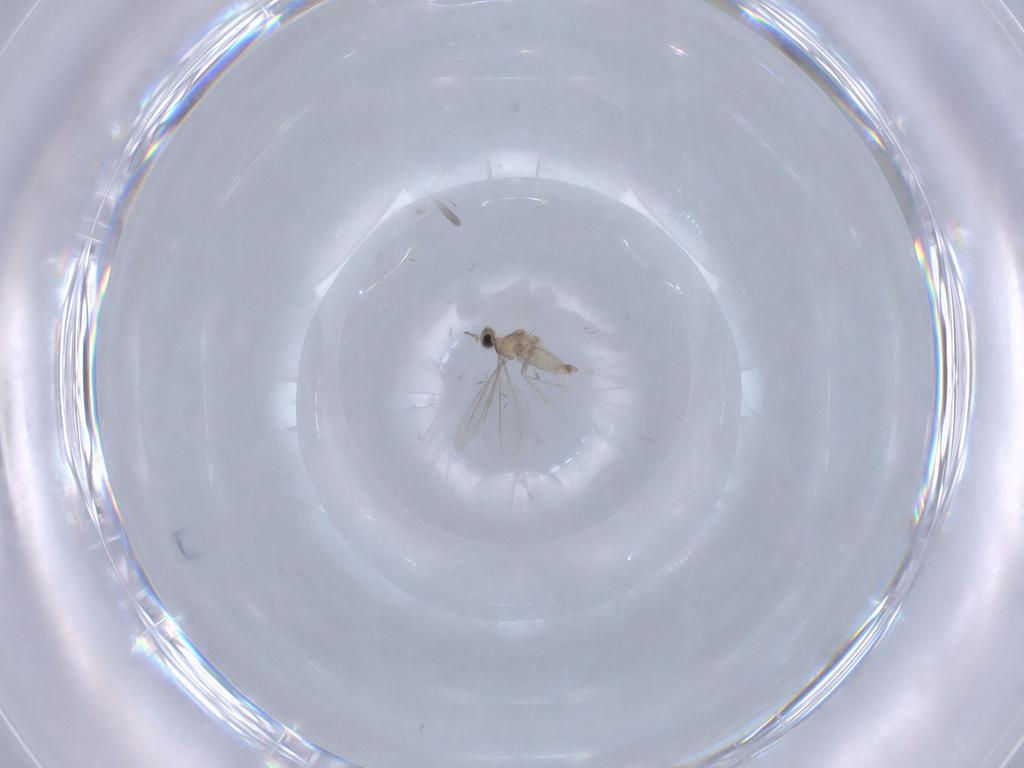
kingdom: Animalia
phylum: Arthropoda
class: Insecta
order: Diptera
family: Cecidomyiidae
